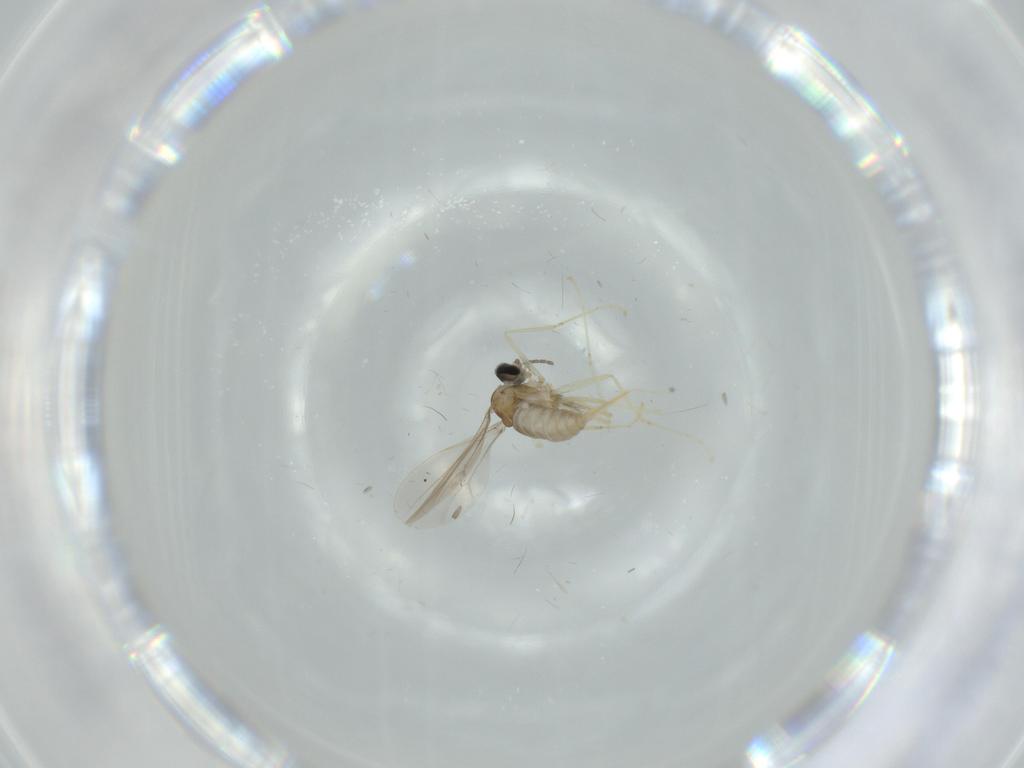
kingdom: Animalia
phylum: Arthropoda
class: Insecta
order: Diptera
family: Cecidomyiidae
